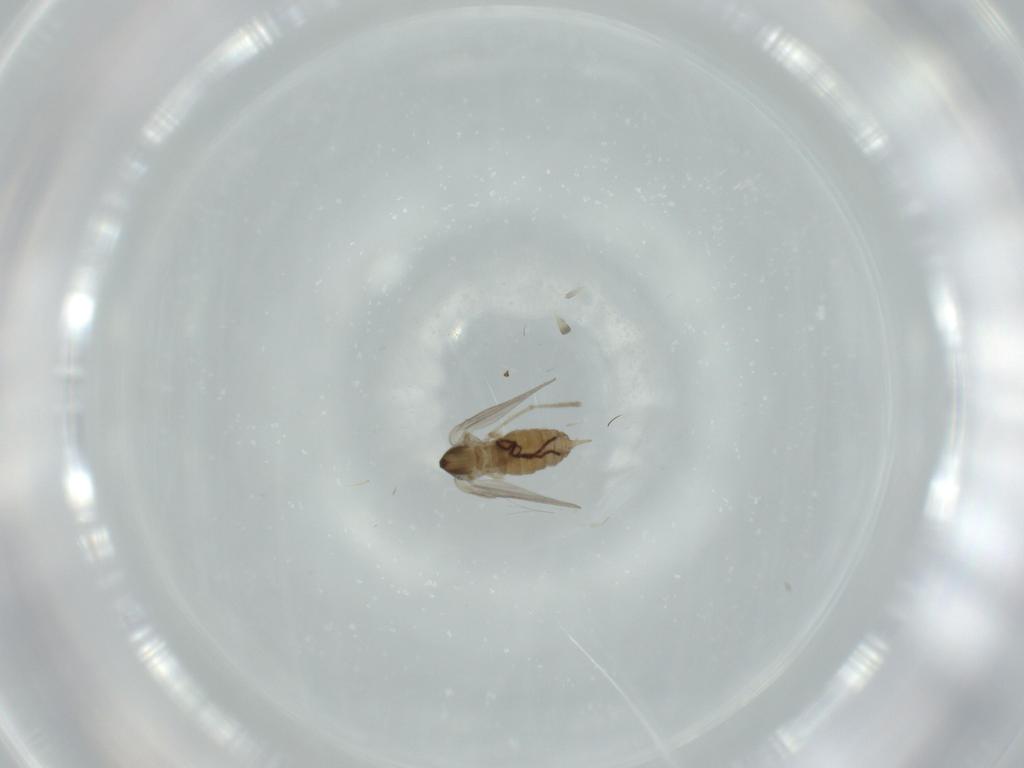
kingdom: Animalia
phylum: Arthropoda
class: Insecta
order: Diptera
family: Psychodidae
